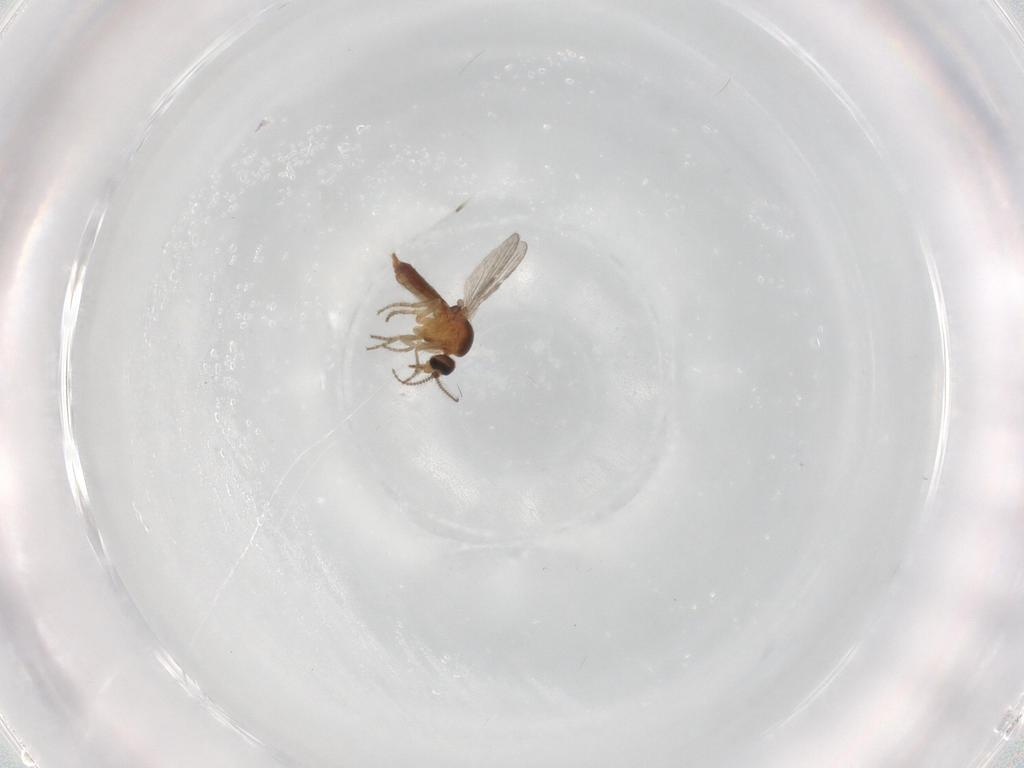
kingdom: Animalia
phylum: Arthropoda
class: Insecta
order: Diptera
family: Ceratopogonidae
